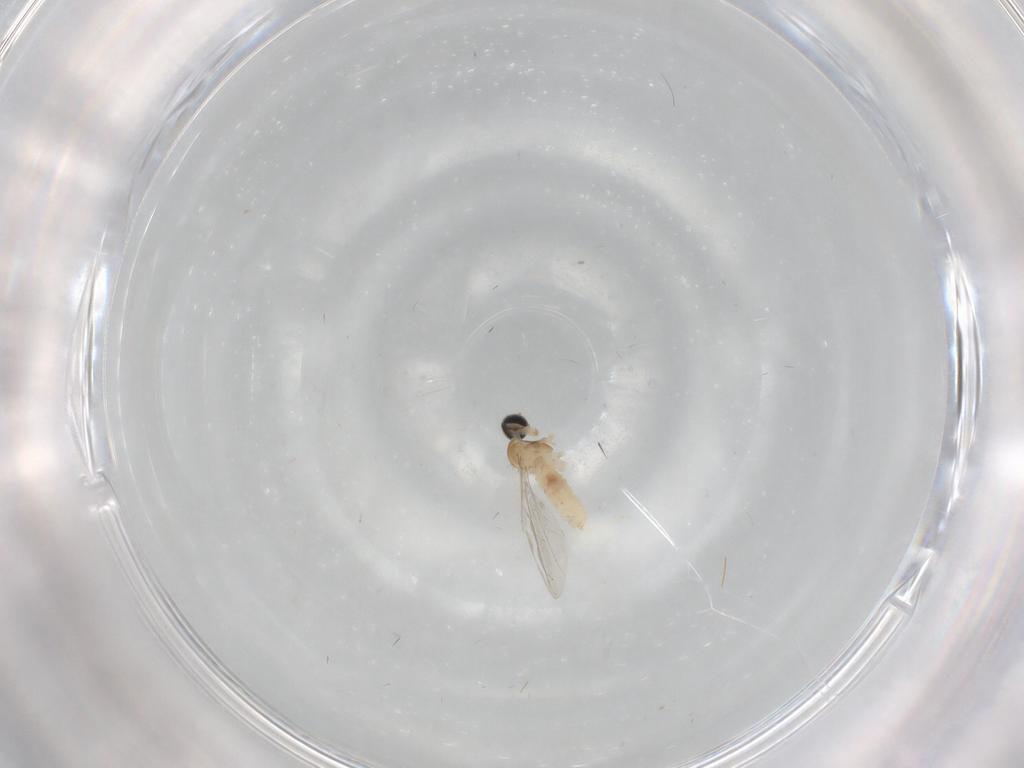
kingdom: Animalia
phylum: Arthropoda
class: Insecta
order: Diptera
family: Cecidomyiidae
